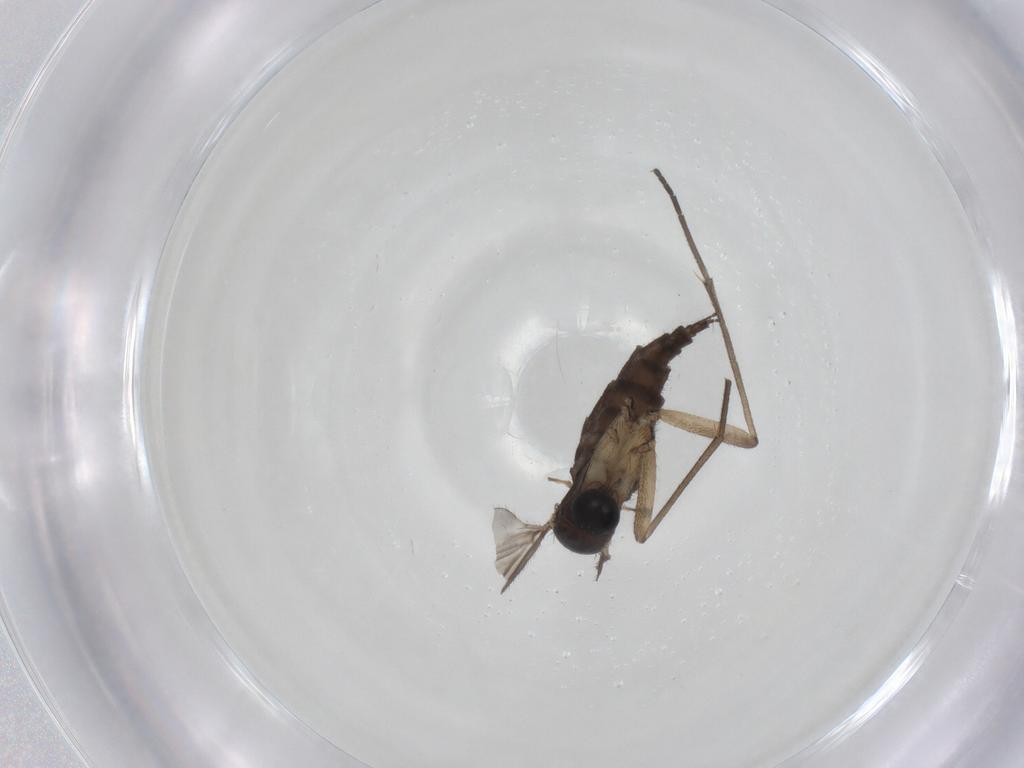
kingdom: Animalia
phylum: Arthropoda
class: Insecta
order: Diptera
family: Sciaridae
